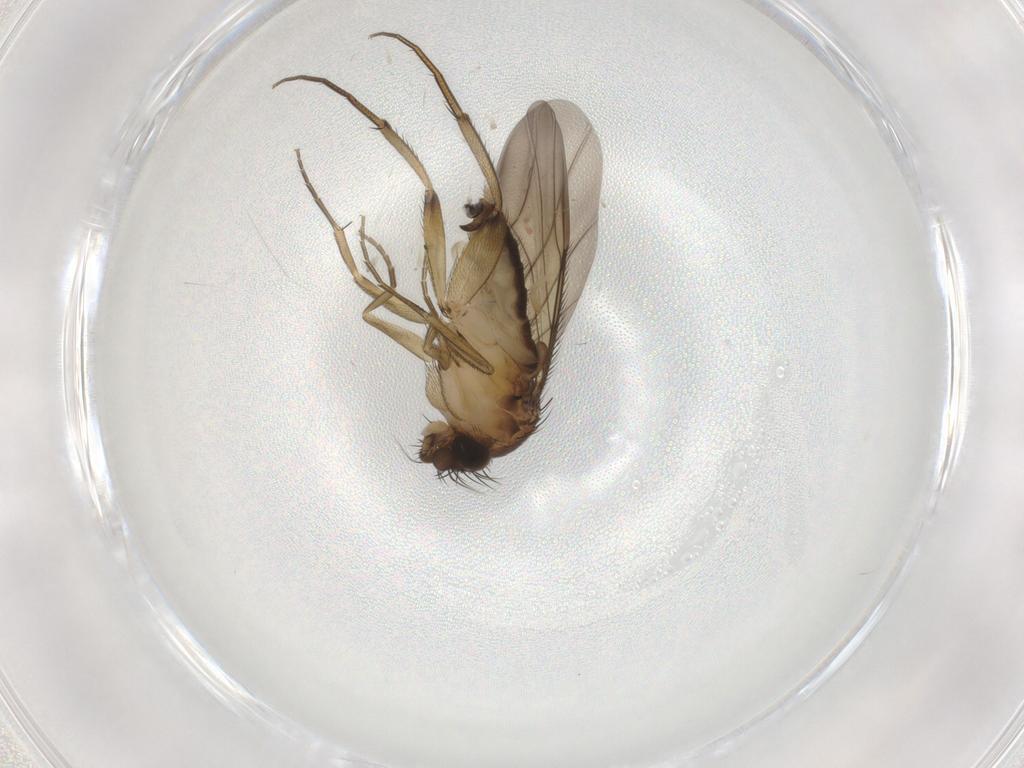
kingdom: Animalia
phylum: Arthropoda
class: Insecta
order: Diptera
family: Phoridae
